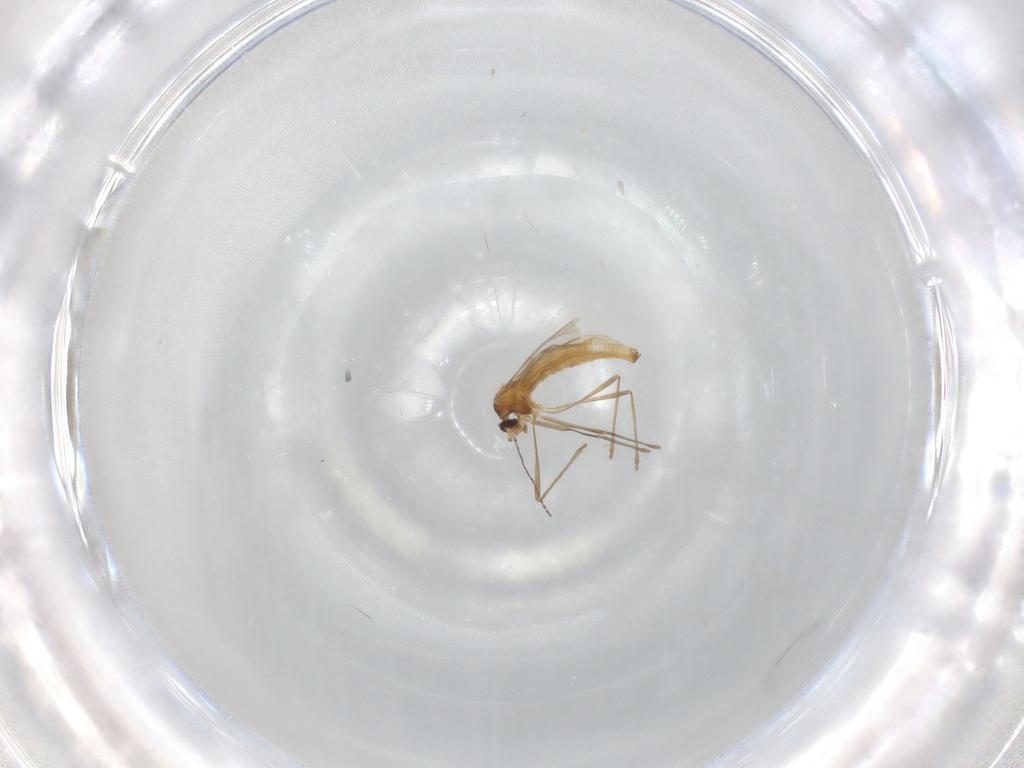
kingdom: Animalia
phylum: Arthropoda
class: Insecta
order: Diptera
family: Cecidomyiidae
